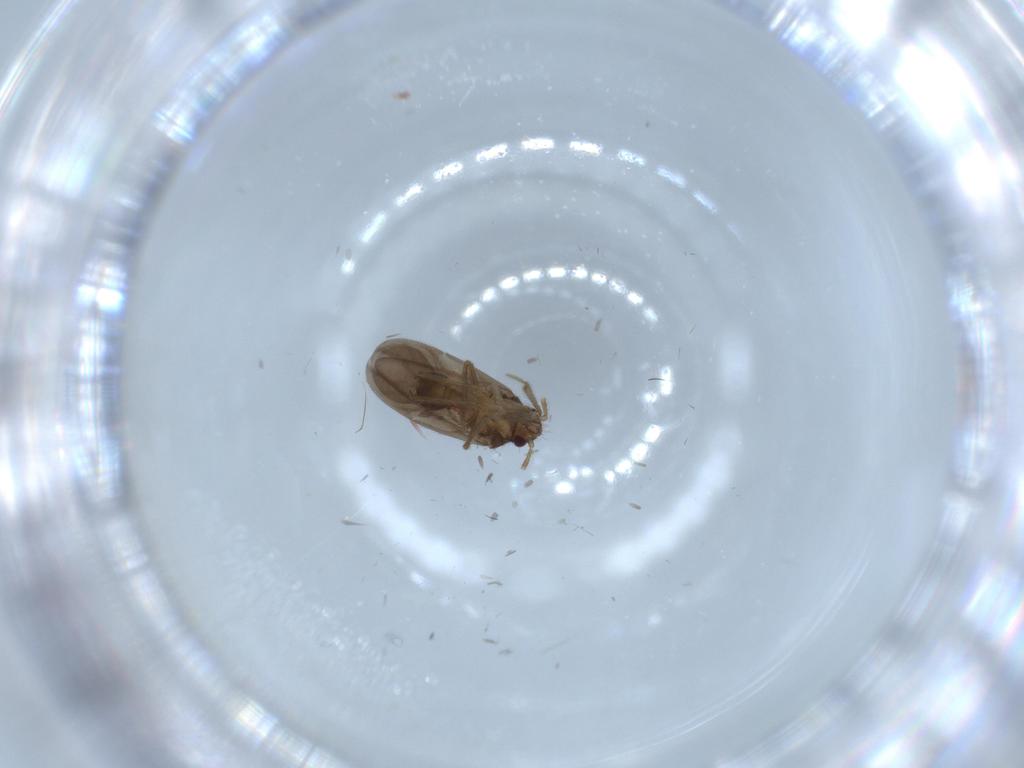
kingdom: Animalia
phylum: Arthropoda
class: Insecta
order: Hemiptera
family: Ceratocombidae
